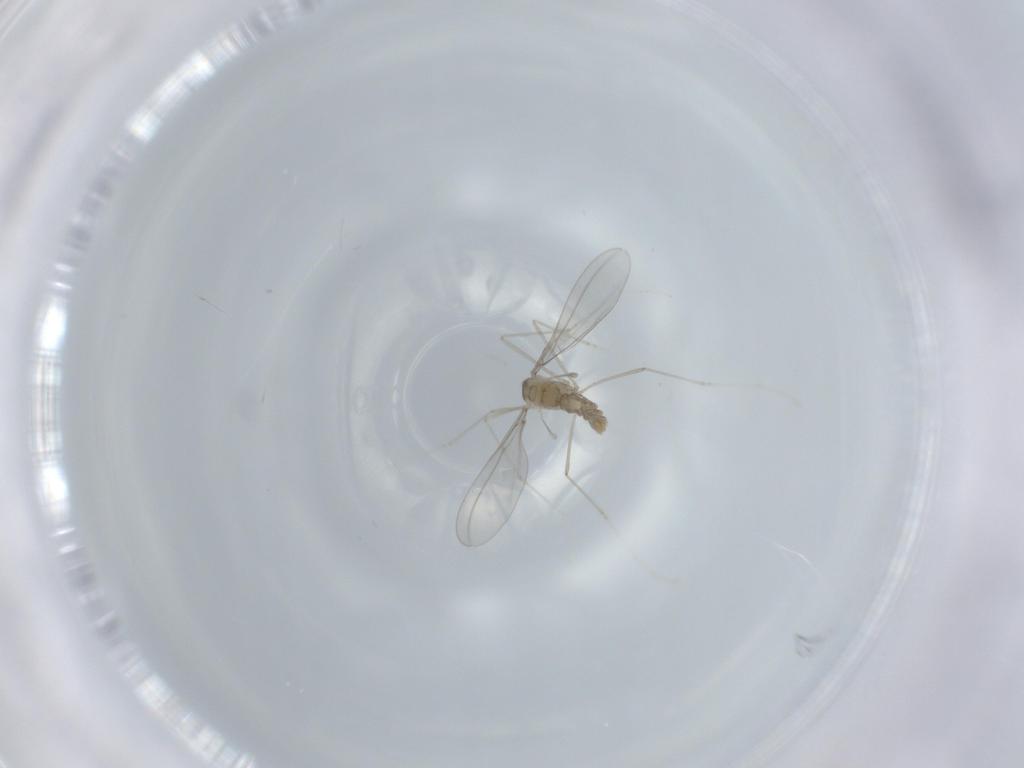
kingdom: Animalia
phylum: Arthropoda
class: Insecta
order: Diptera
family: Cecidomyiidae
